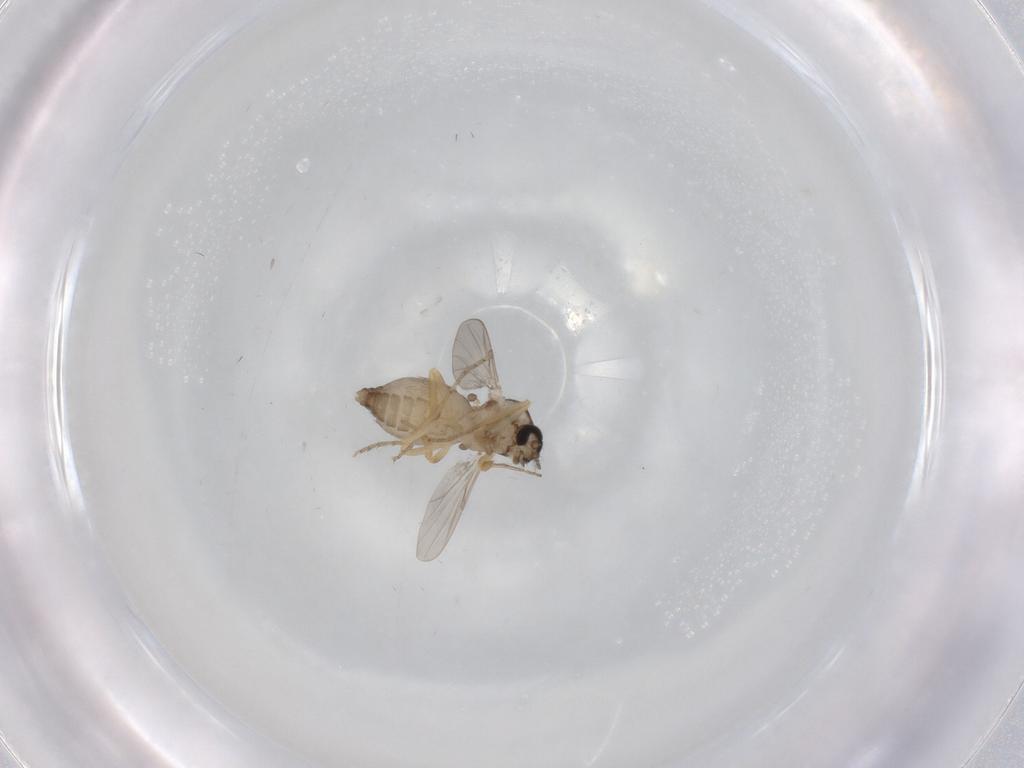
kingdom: Animalia
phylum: Arthropoda
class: Insecta
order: Diptera
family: Ceratopogonidae
